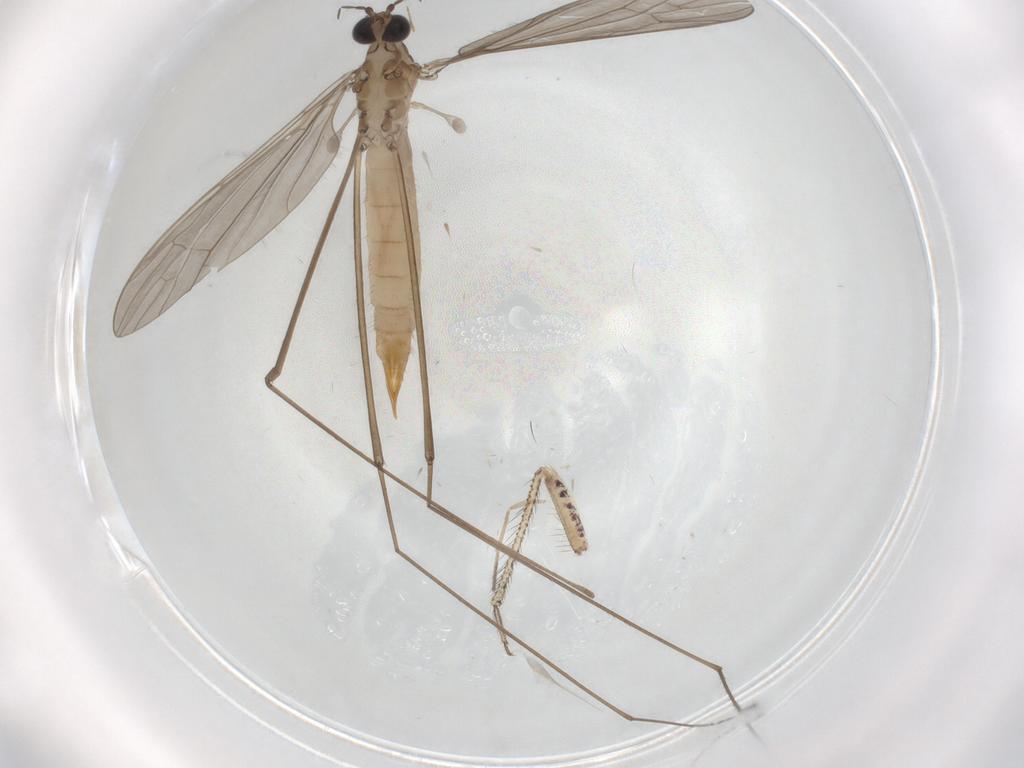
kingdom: Animalia
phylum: Arthropoda
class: Insecta
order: Diptera
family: Limoniidae
